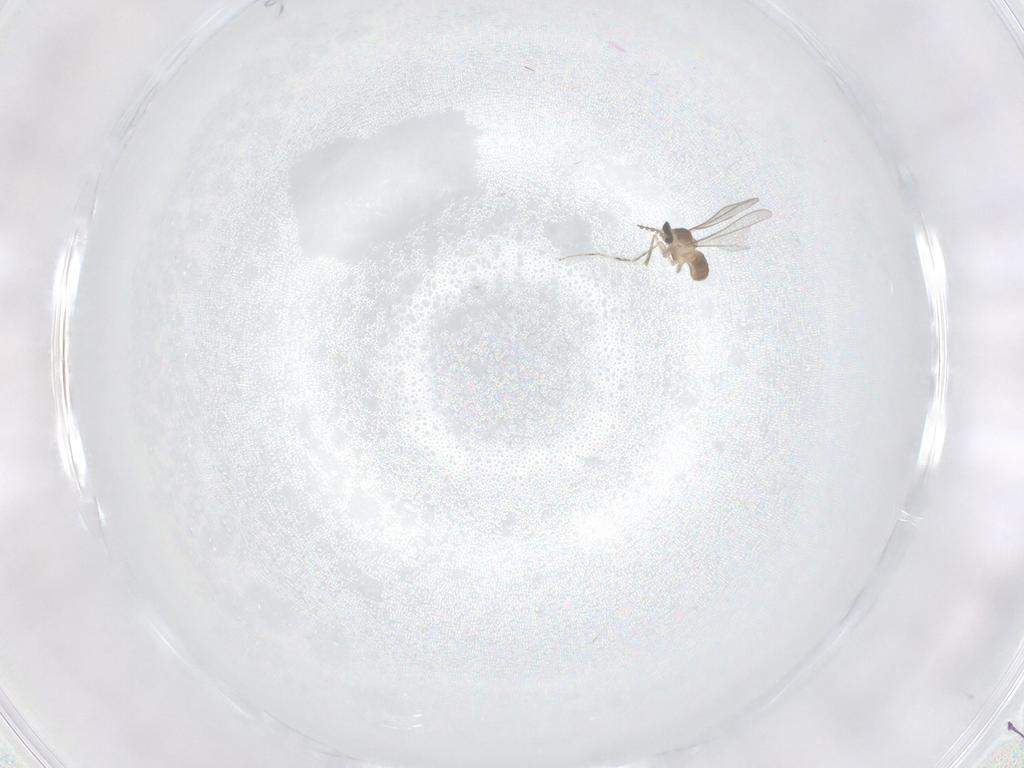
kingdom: Animalia
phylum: Arthropoda
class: Insecta
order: Diptera
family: Cecidomyiidae
